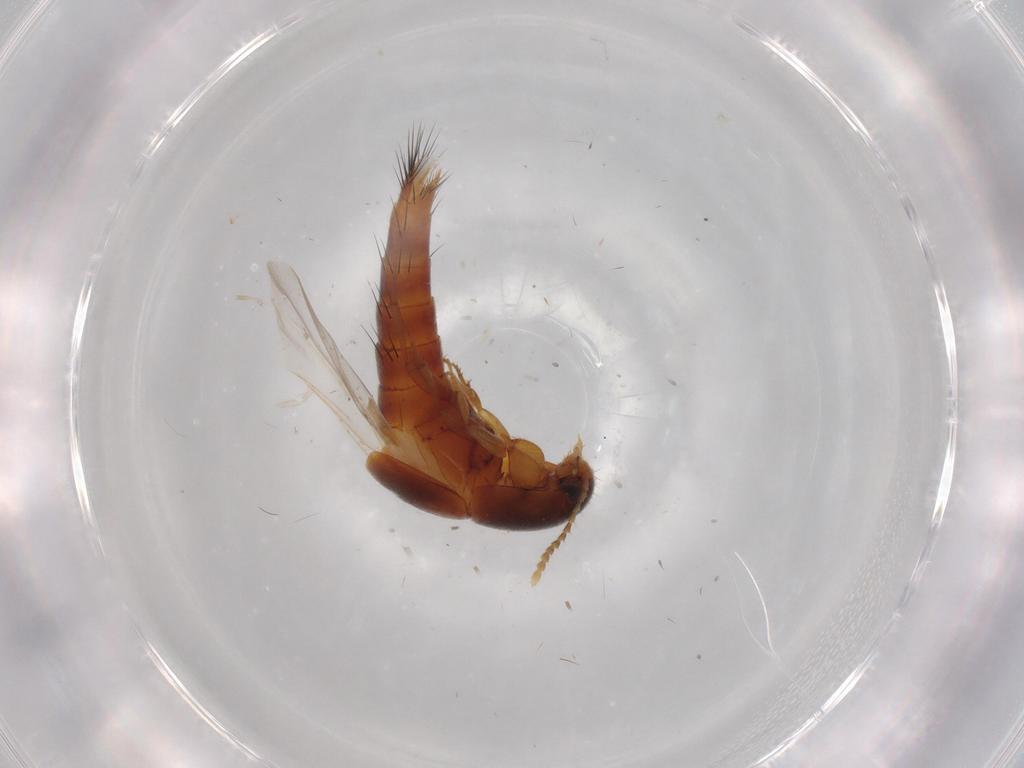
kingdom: Animalia
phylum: Arthropoda
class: Insecta
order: Coleoptera
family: Staphylinidae
